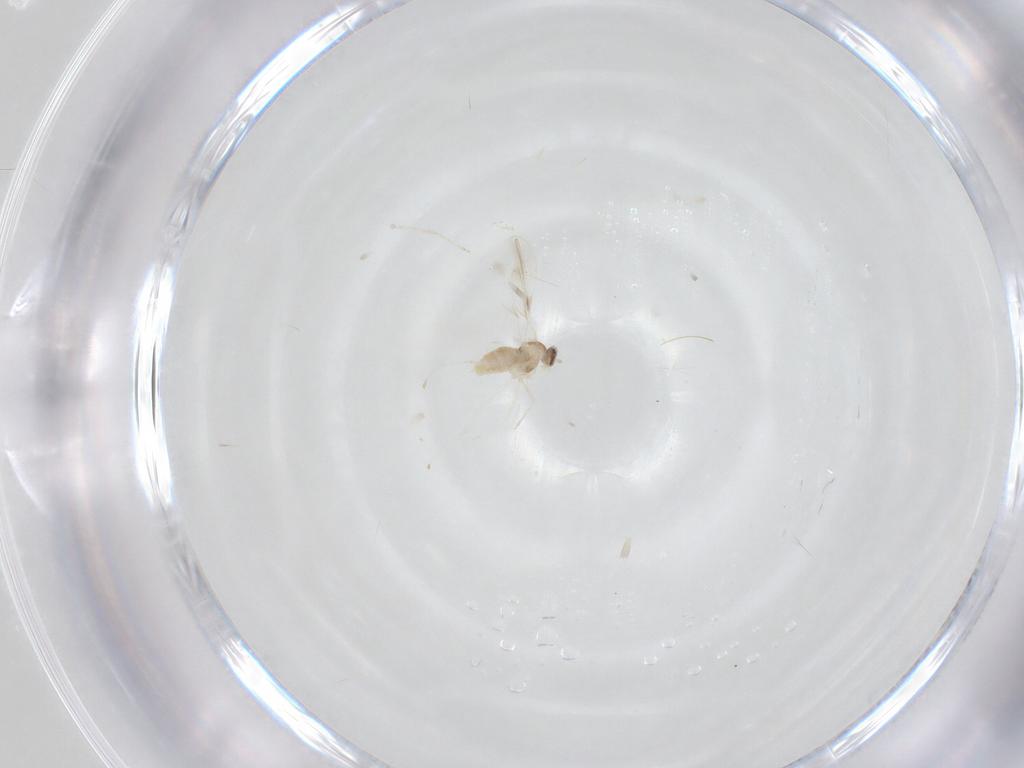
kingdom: Animalia
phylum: Arthropoda
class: Insecta
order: Diptera
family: Cecidomyiidae
